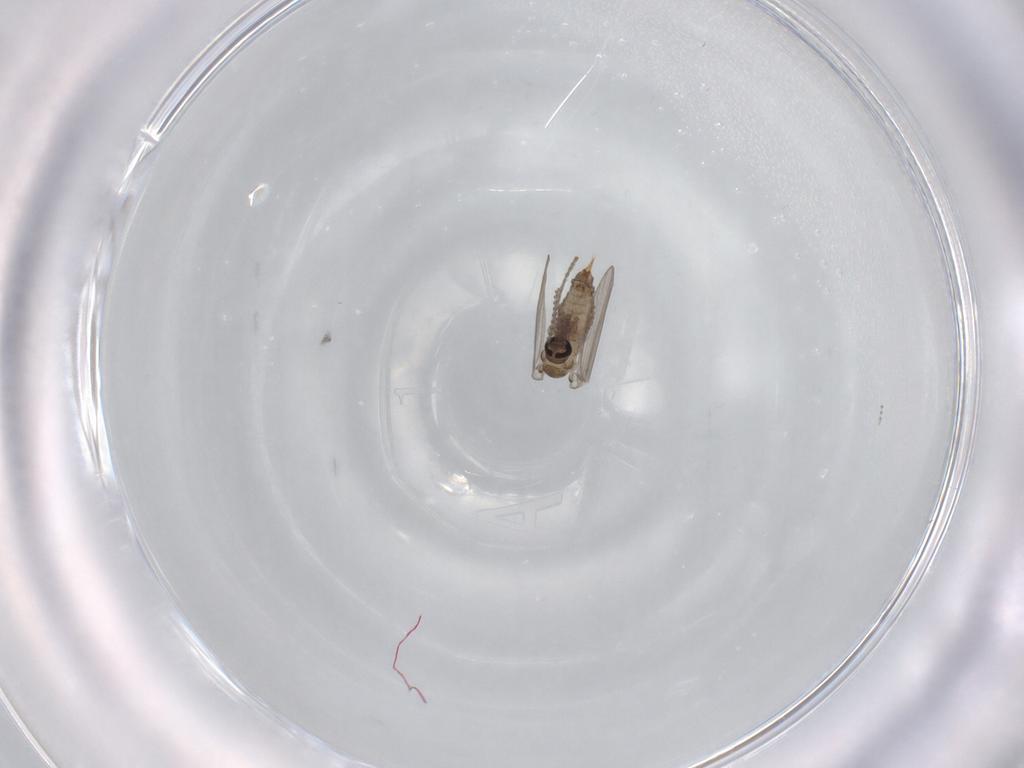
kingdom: Animalia
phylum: Arthropoda
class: Insecta
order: Diptera
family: Psychodidae
